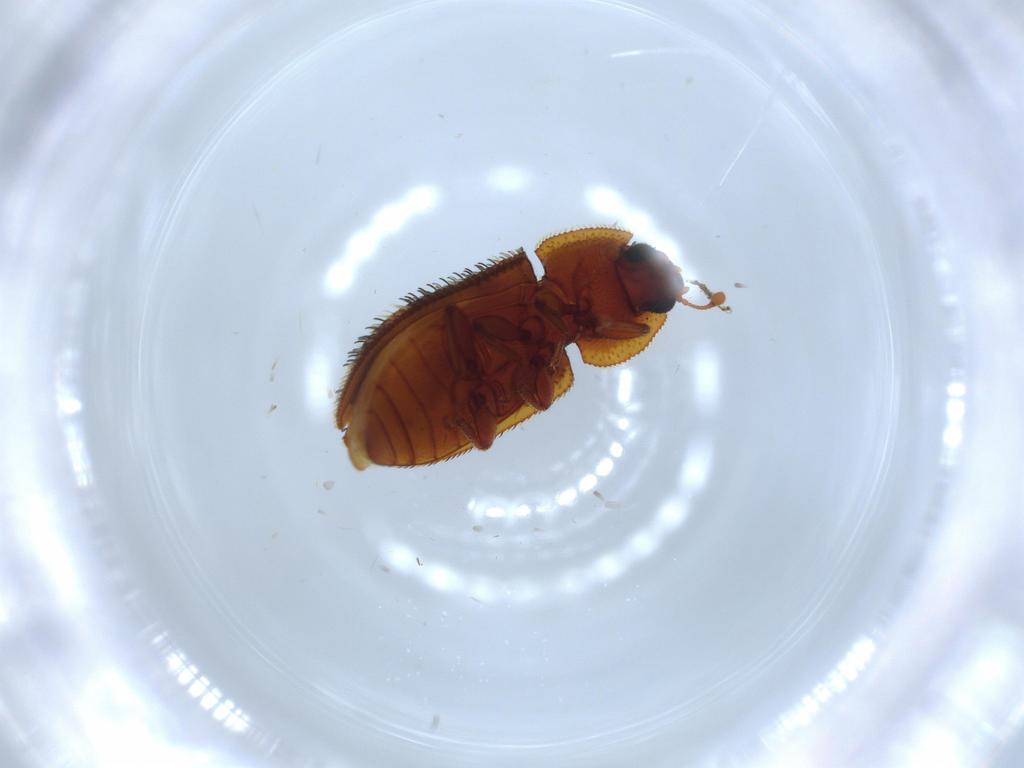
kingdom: Animalia
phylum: Arthropoda
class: Insecta
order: Coleoptera
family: Zopheridae
